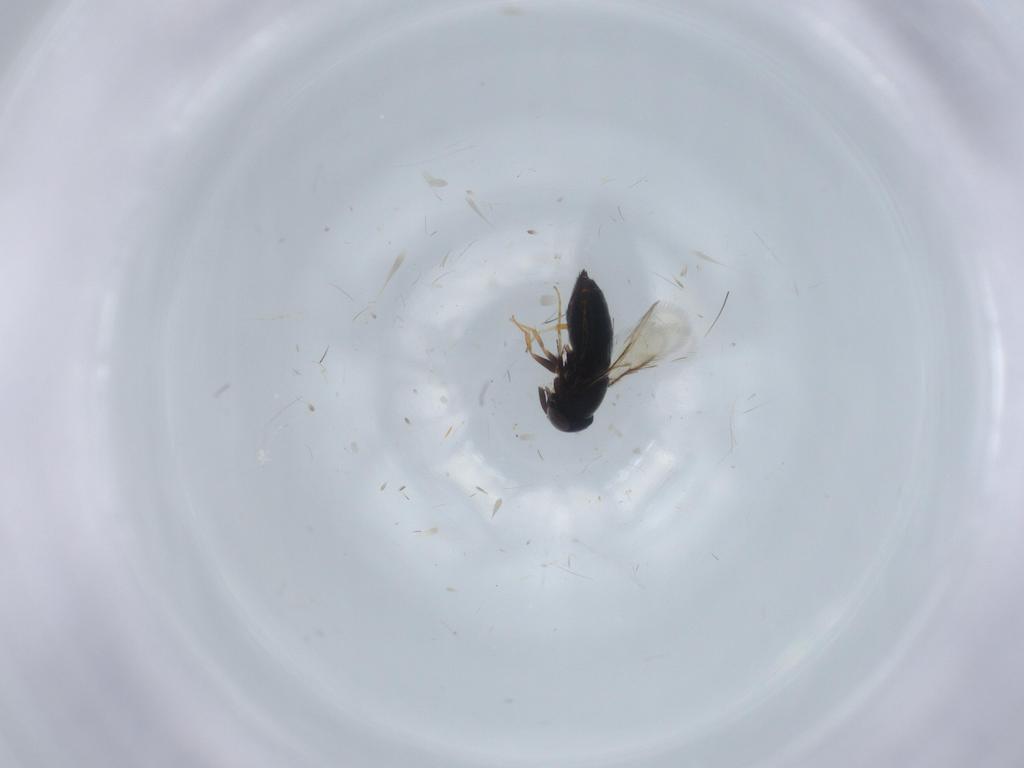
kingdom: Animalia
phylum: Arthropoda
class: Insecta
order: Hymenoptera
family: Signiphoridae
